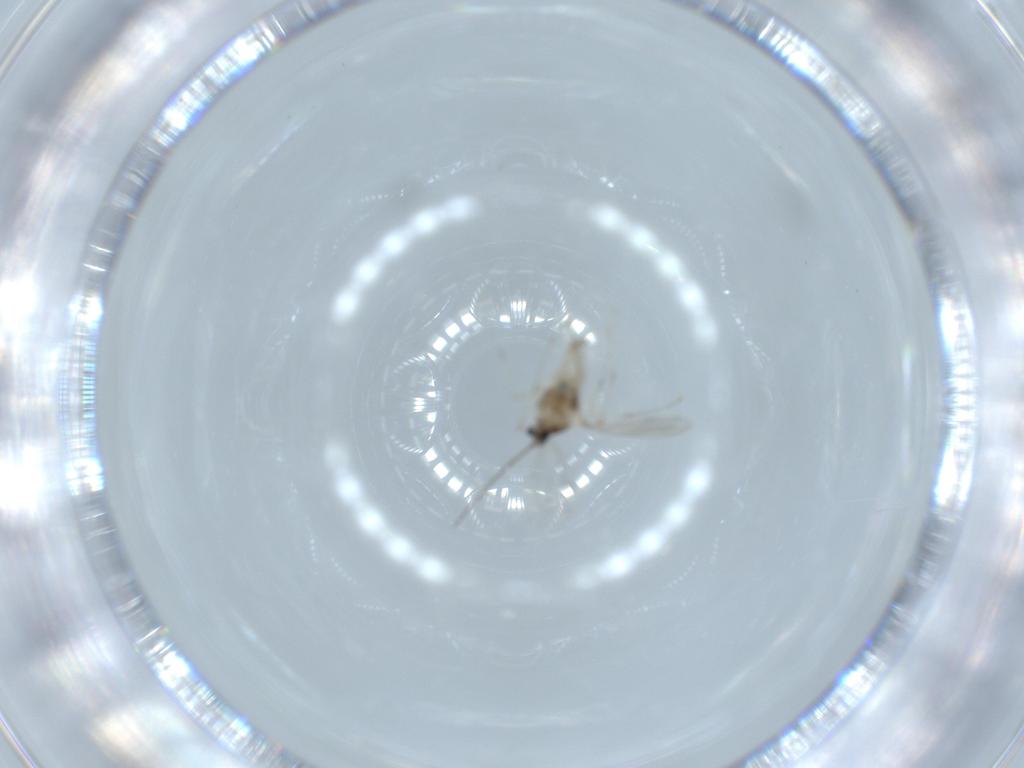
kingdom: Animalia
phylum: Arthropoda
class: Insecta
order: Diptera
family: Cecidomyiidae
